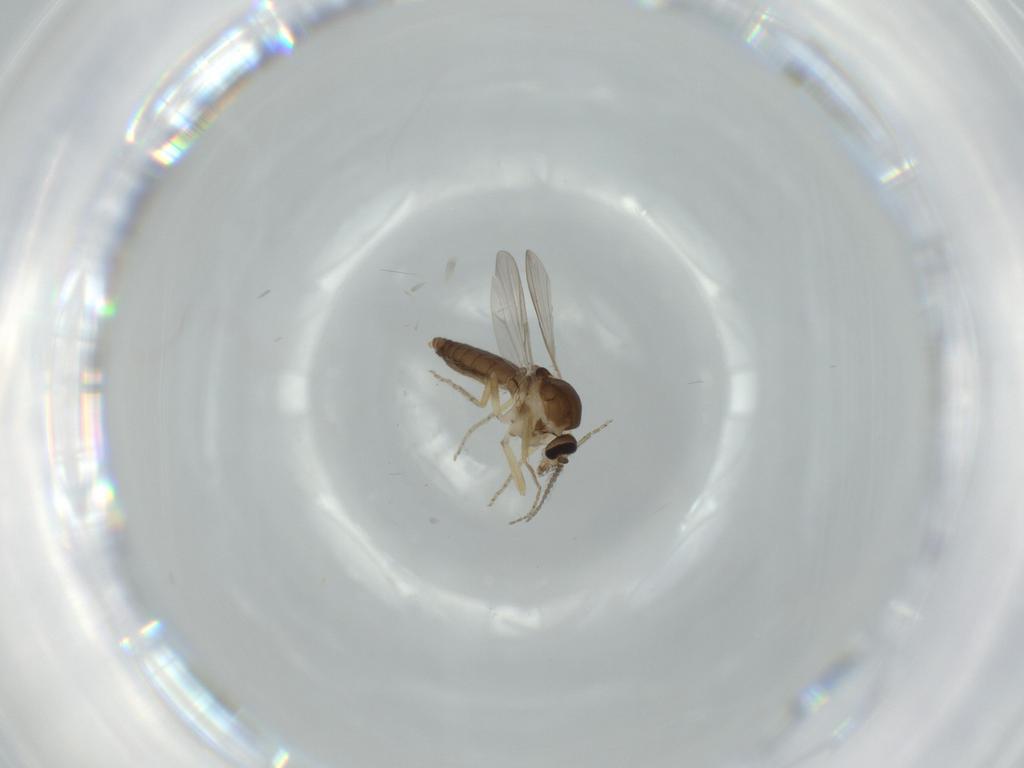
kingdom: Animalia
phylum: Arthropoda
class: Insecta
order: Diptera
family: Ceratopogonidae
